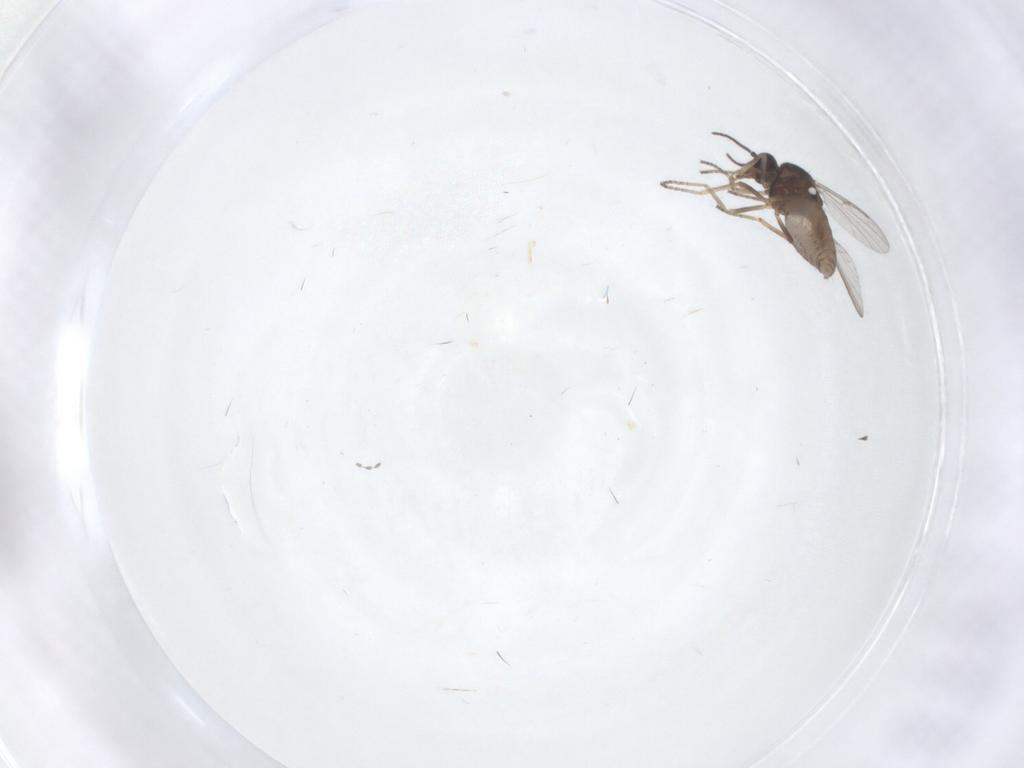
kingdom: Animalia
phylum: Arthropoda
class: Insecta
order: Diptera
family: Ceratopogonidae
